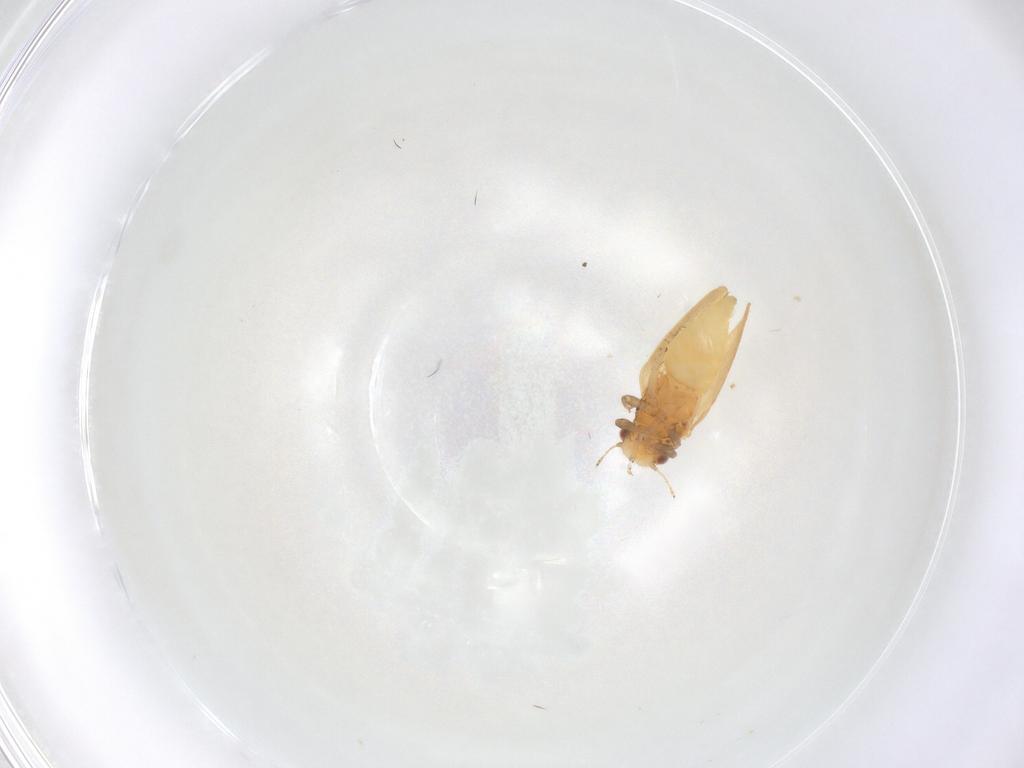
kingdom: Animalia
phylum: Arthropoda
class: Insecta
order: Hemiptera
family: Issidae
